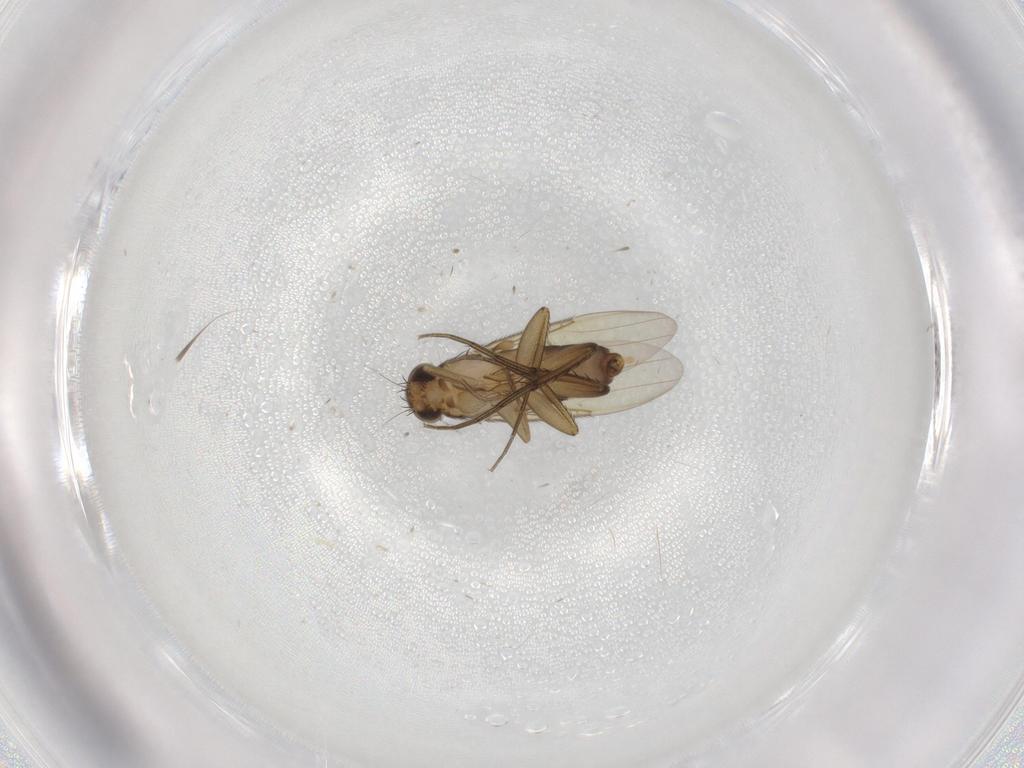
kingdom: Animalia
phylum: Arthropoda
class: Insecta
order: Diptera
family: Phoridae
